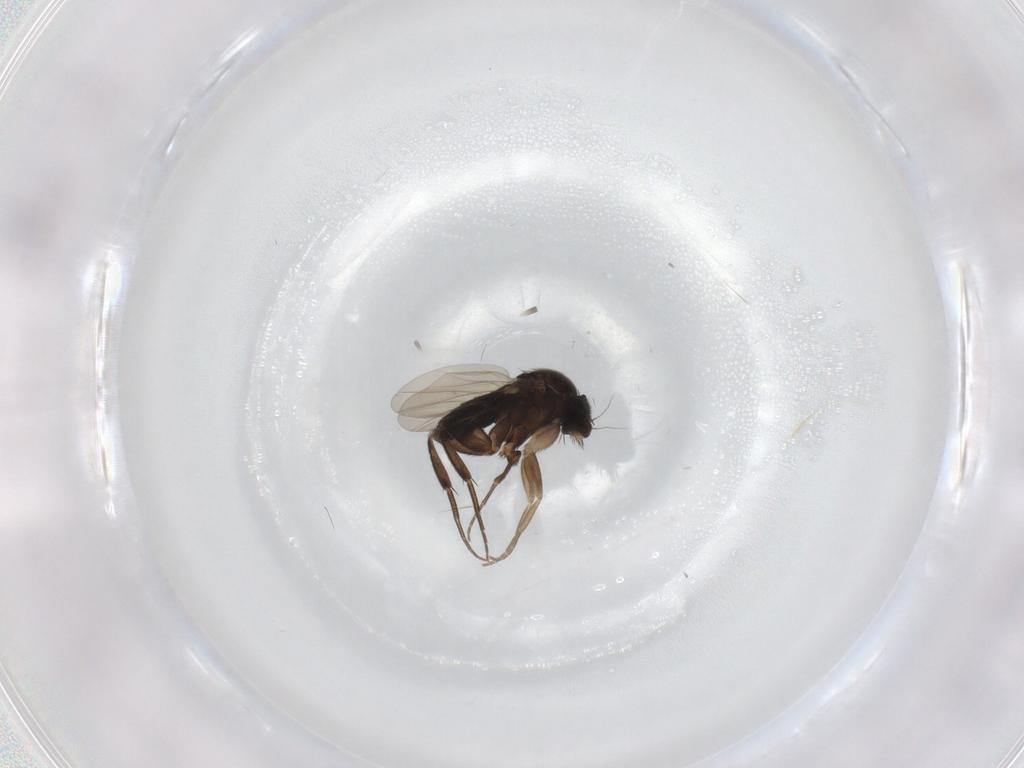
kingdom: Animalia
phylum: Arthropoda
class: Insecta
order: Diptera
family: Phoridae
